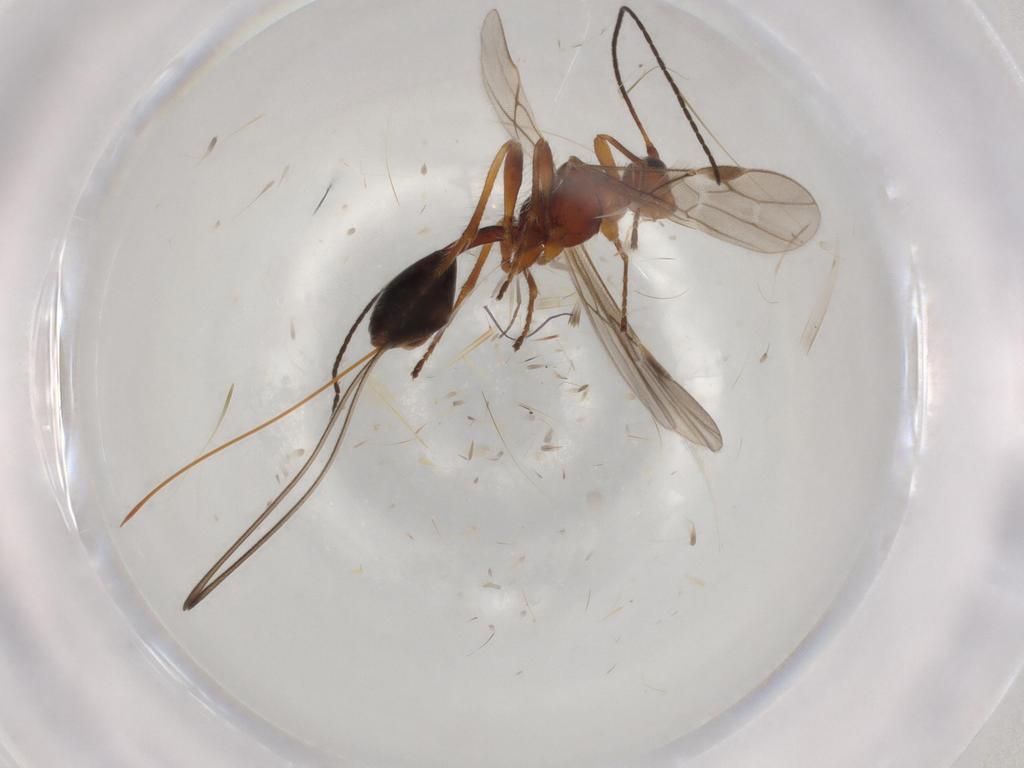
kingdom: Animalia
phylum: Arthropoda
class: Insecta
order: Hymenoptera
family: Braconidae
